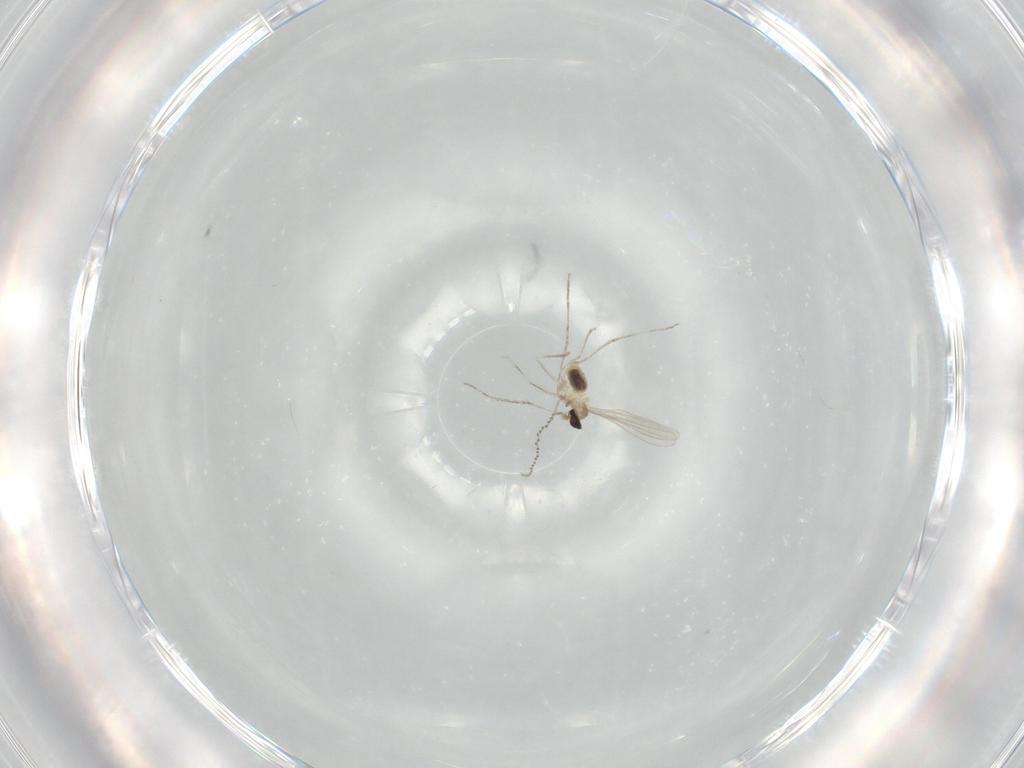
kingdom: Animalia
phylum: Arthropoda
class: Insecta
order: Diptera
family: Cecidomyiidae
